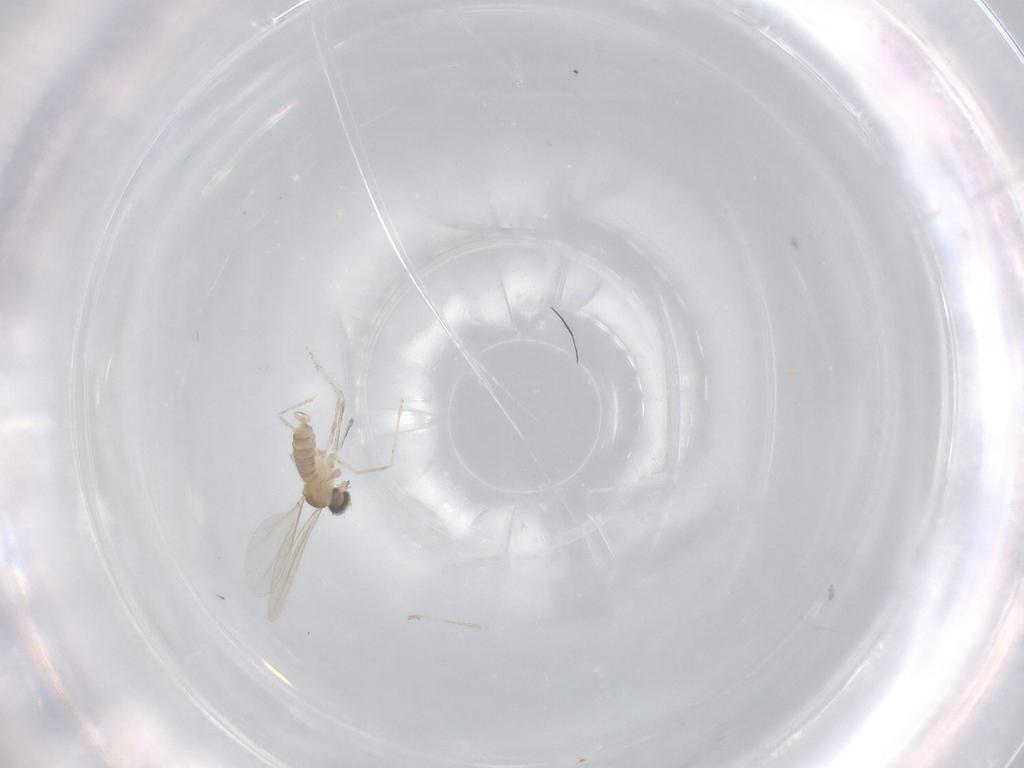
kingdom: Animalia
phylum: Arthropoda
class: Insecta
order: Diptera
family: Cecidomyiidae
